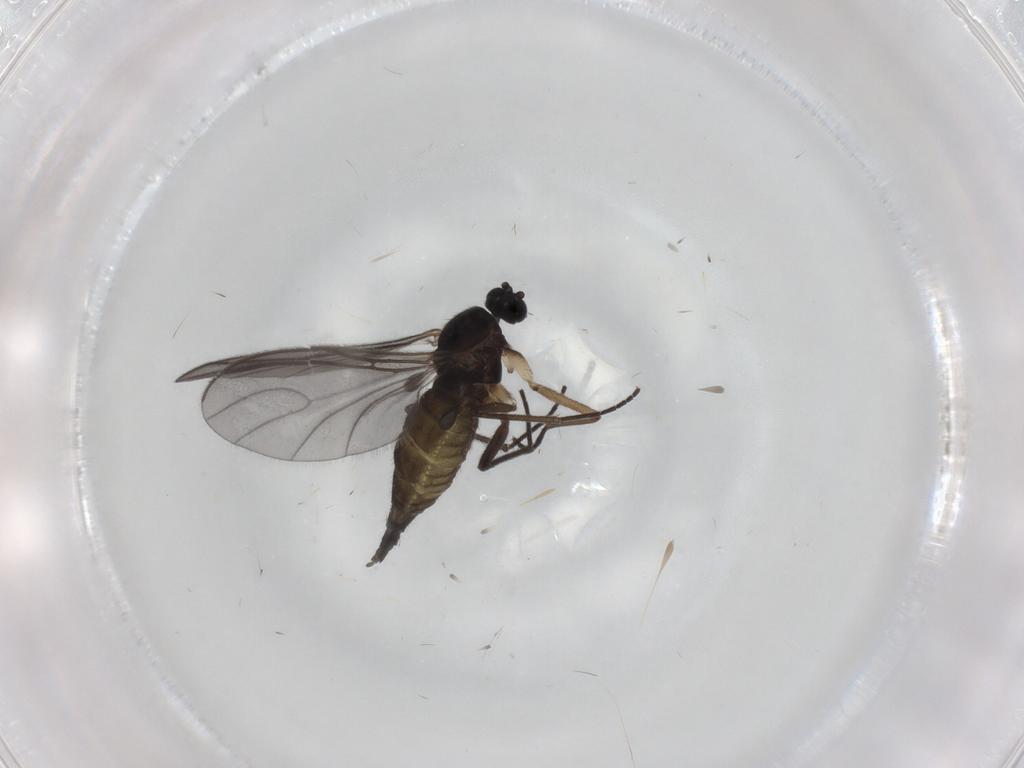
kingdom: Animalia
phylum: Arthropoda
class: Insecta
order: Diptera
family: Sciaridae
